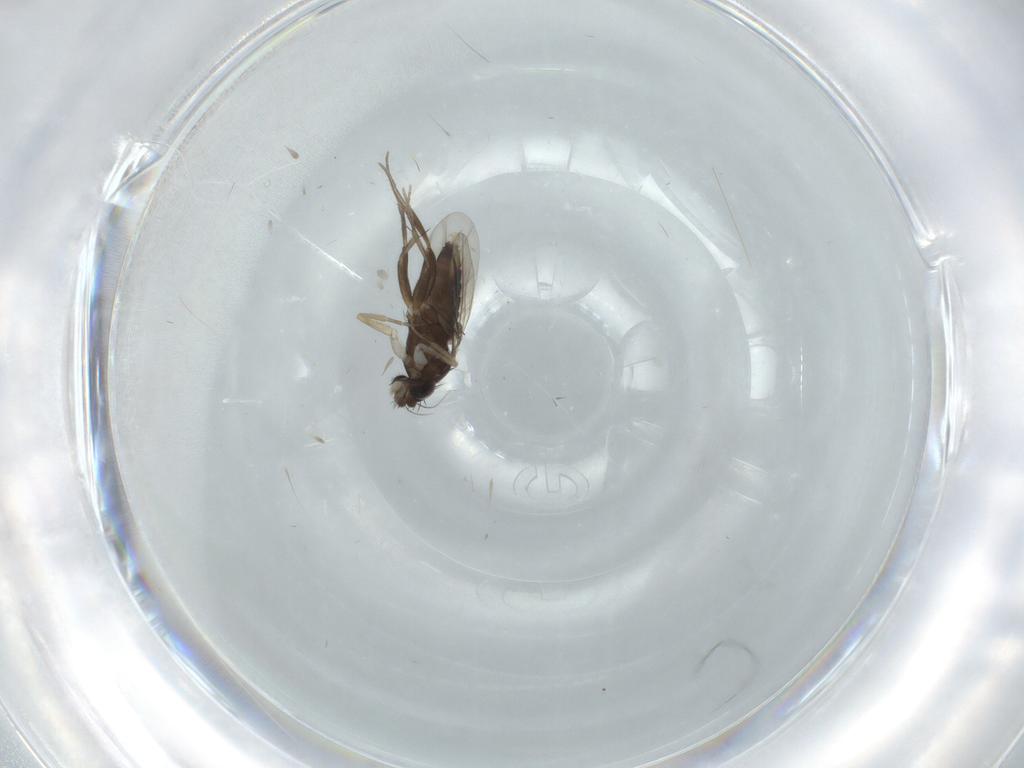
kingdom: Animalia
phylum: Arthropoda
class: Insecta
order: Diptera
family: Phoridae
